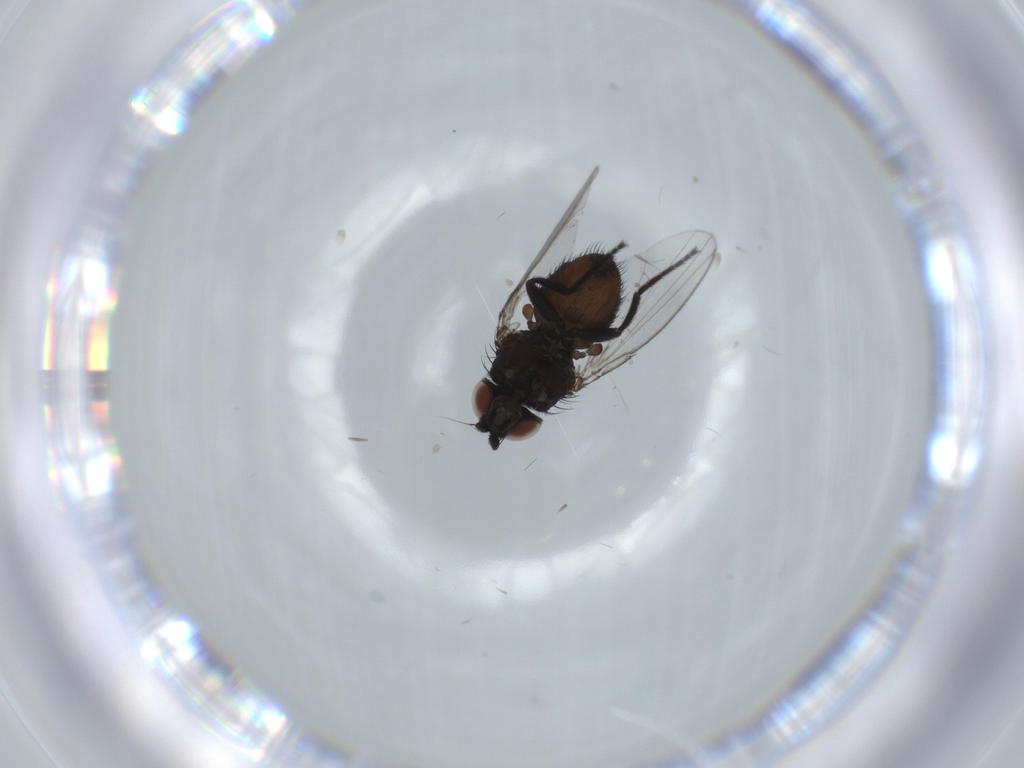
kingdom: Animalia
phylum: Arthropoda
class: Insecta
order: Diptera
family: Milichiidae
